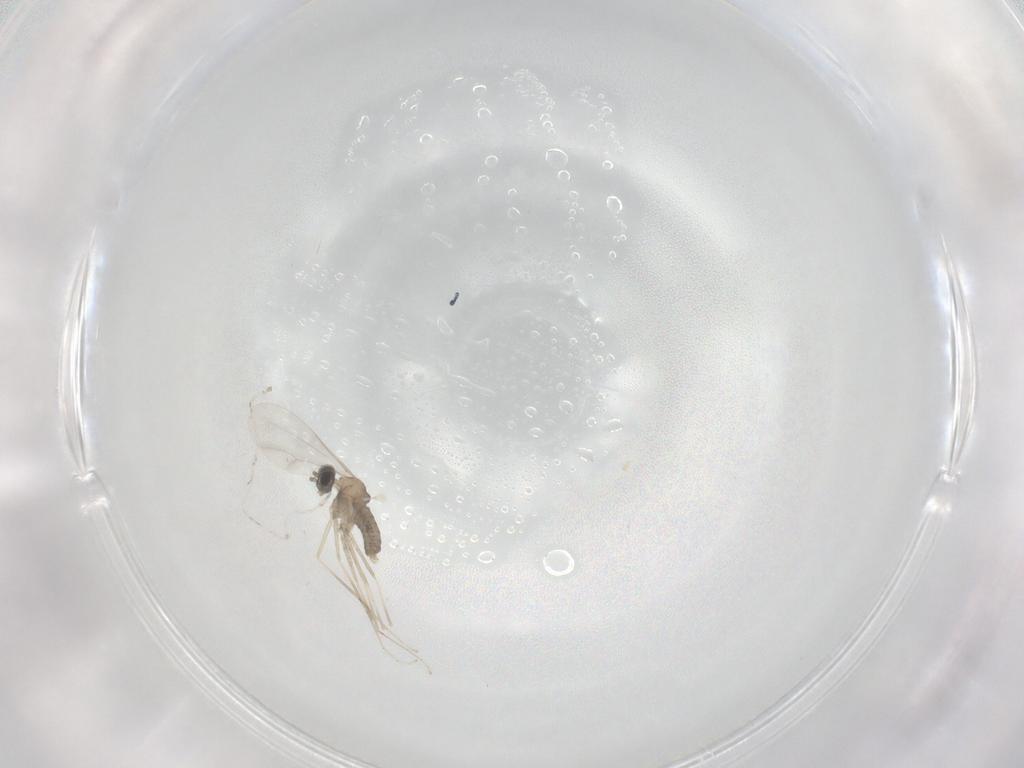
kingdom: Animalia
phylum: Arthropoda
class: Insecta
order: Diptera
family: Cecidomyiidae
